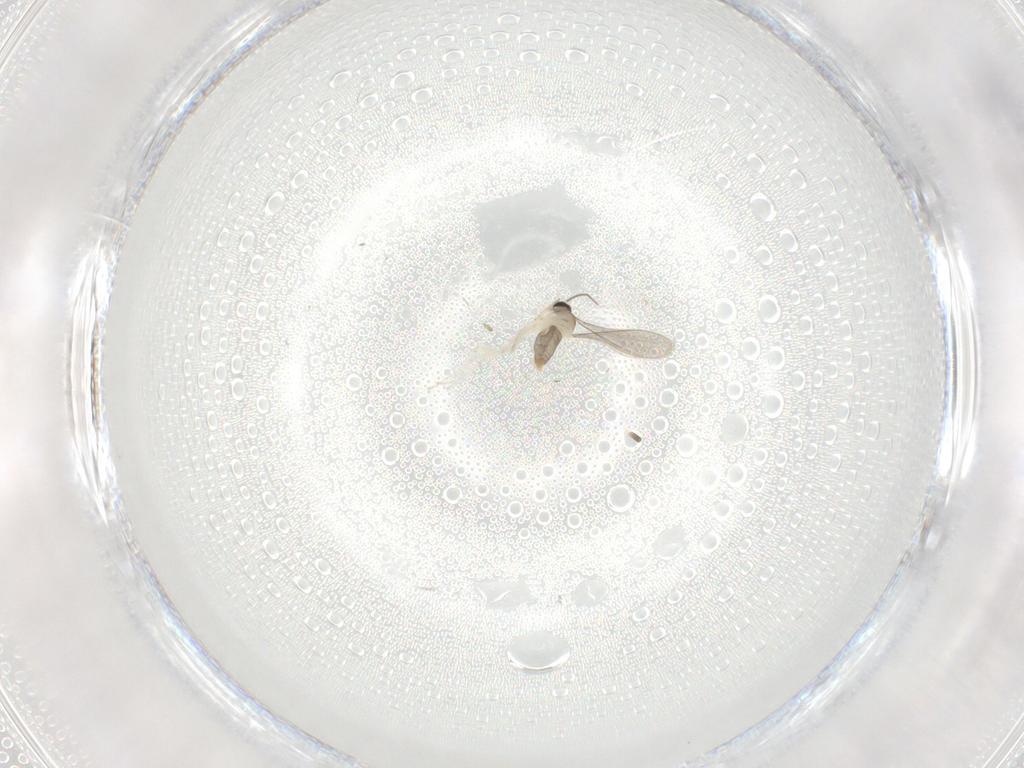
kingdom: Animalia
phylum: Arthropoda
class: Insecta
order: Diptera
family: Cecidomyiidae
